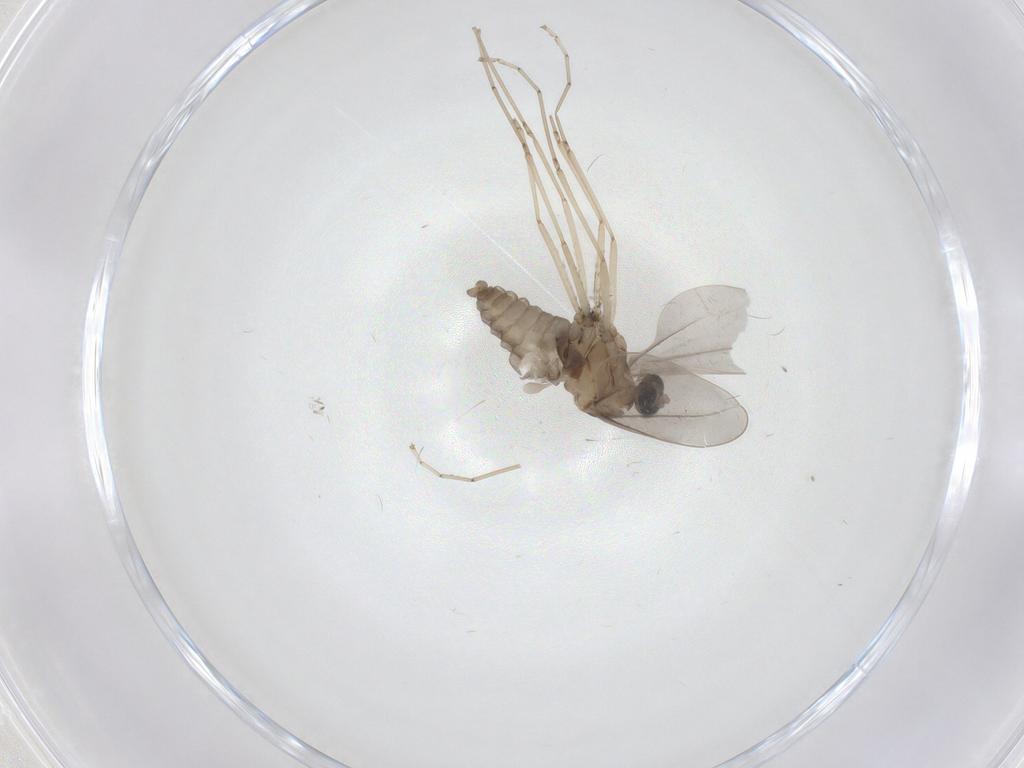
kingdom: Animalia
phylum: Arthropoda
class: Insecta
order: Diptera
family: Cecidomyiidae
